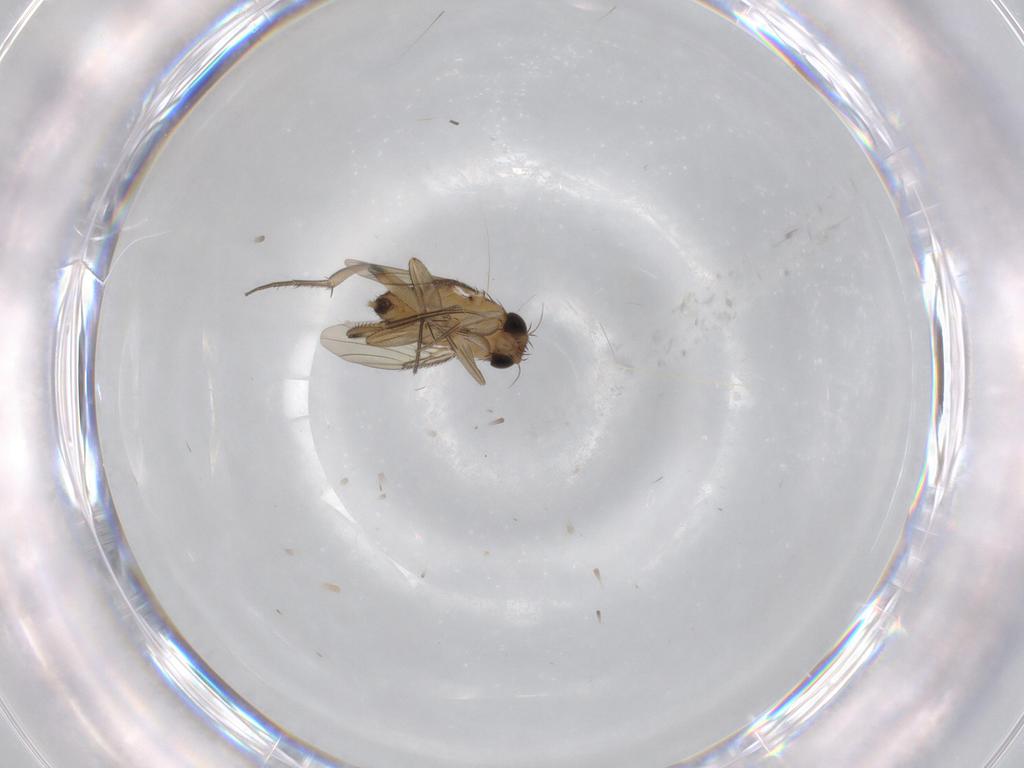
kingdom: Animalia
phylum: Arthropoda
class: Insecta
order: Diptera
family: Phoridae
